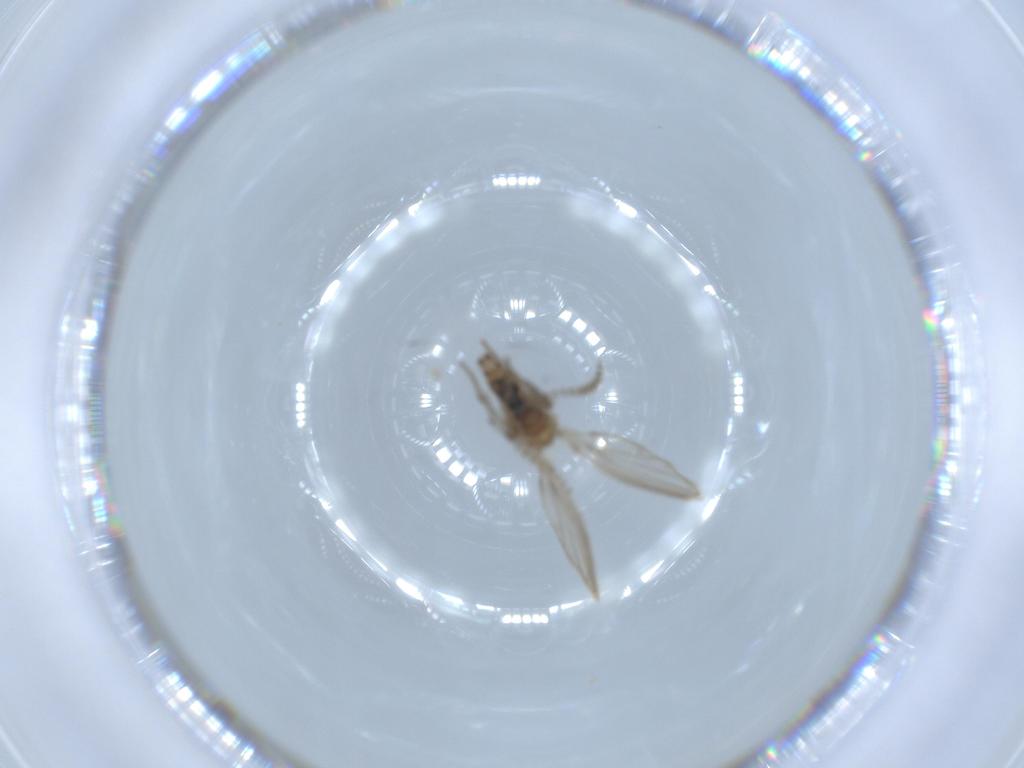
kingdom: Animalia
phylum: Arthropoda
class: Insecta
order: Diptera
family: Psychodidae
